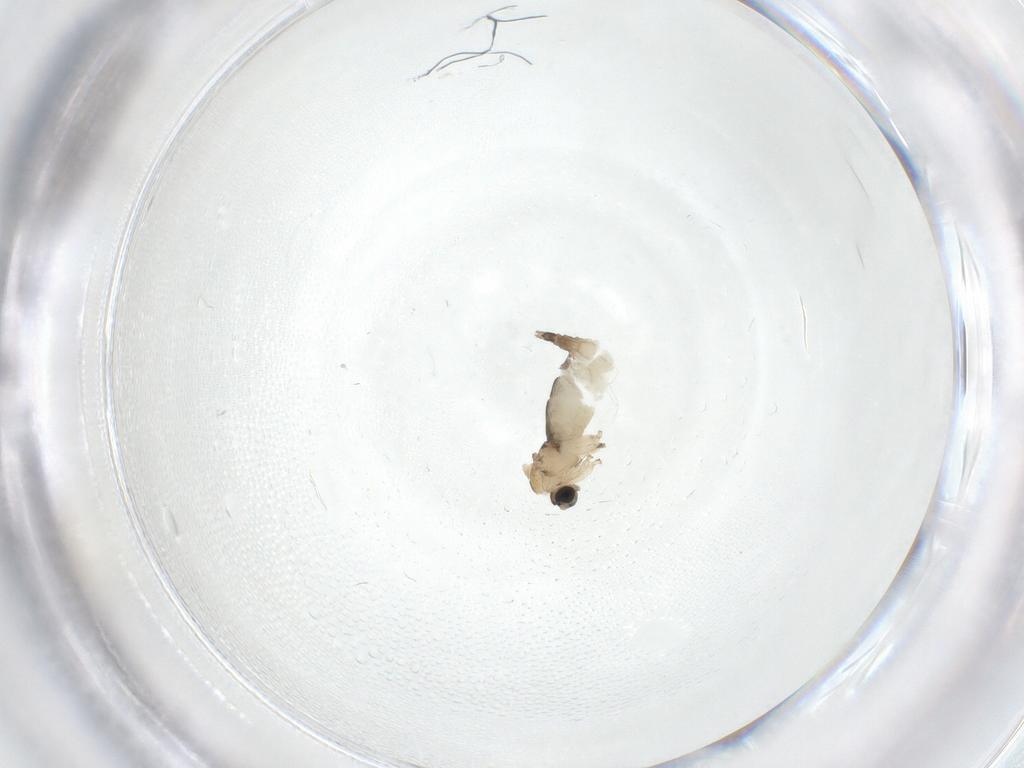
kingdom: Animalia
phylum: Arthropoda
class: Insecta
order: Diptera
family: Sciaridae
